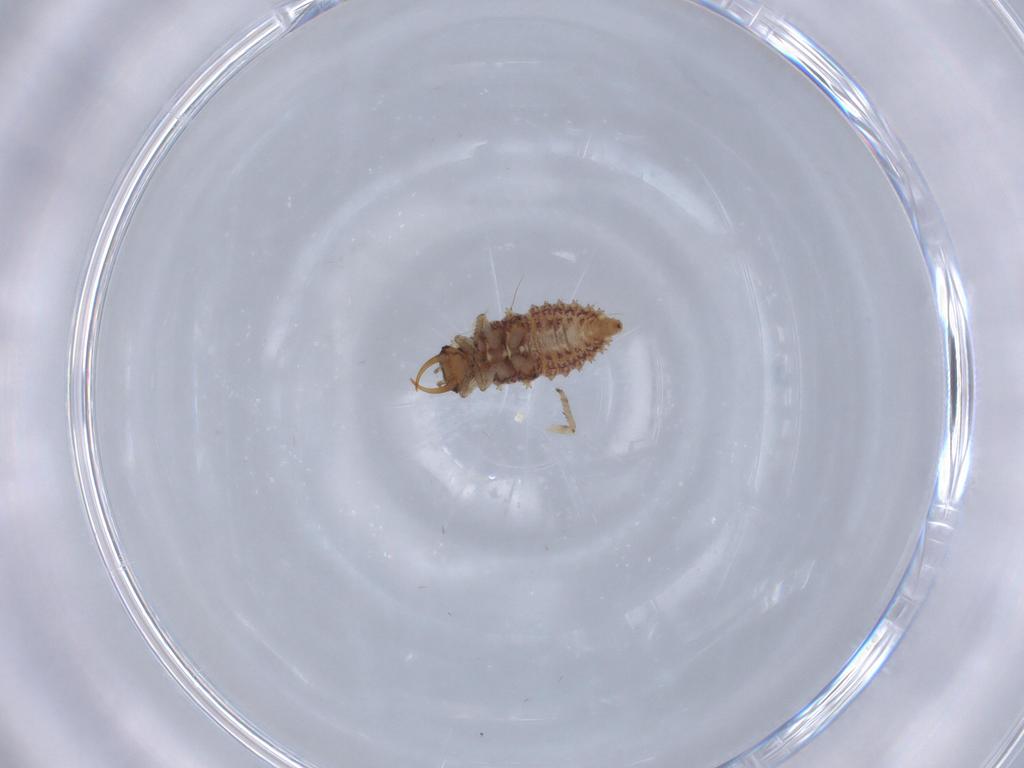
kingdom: Animalia
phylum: Arthropoda
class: Insecta
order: Neuroptera
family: Chrysopidae
